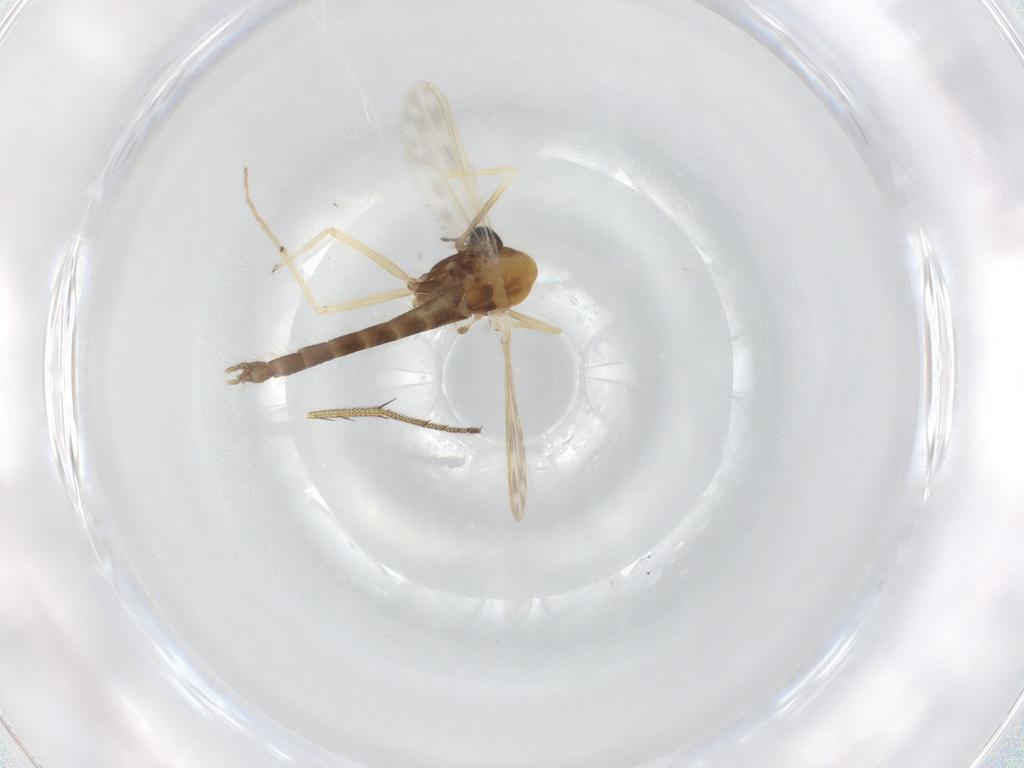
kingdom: Animalia
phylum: Arthropoda
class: Insecta
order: Diptera
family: Chironomidae
